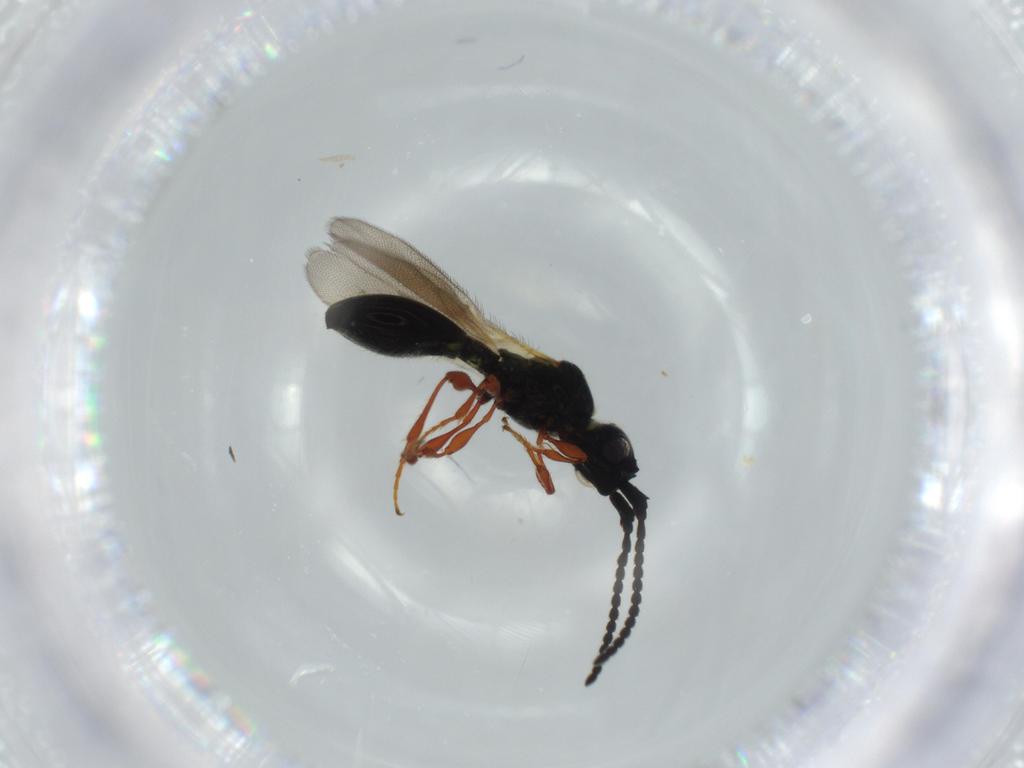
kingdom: Animalia
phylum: Arthropoda
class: Insecta
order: Hymenoptera
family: Diapriidae
